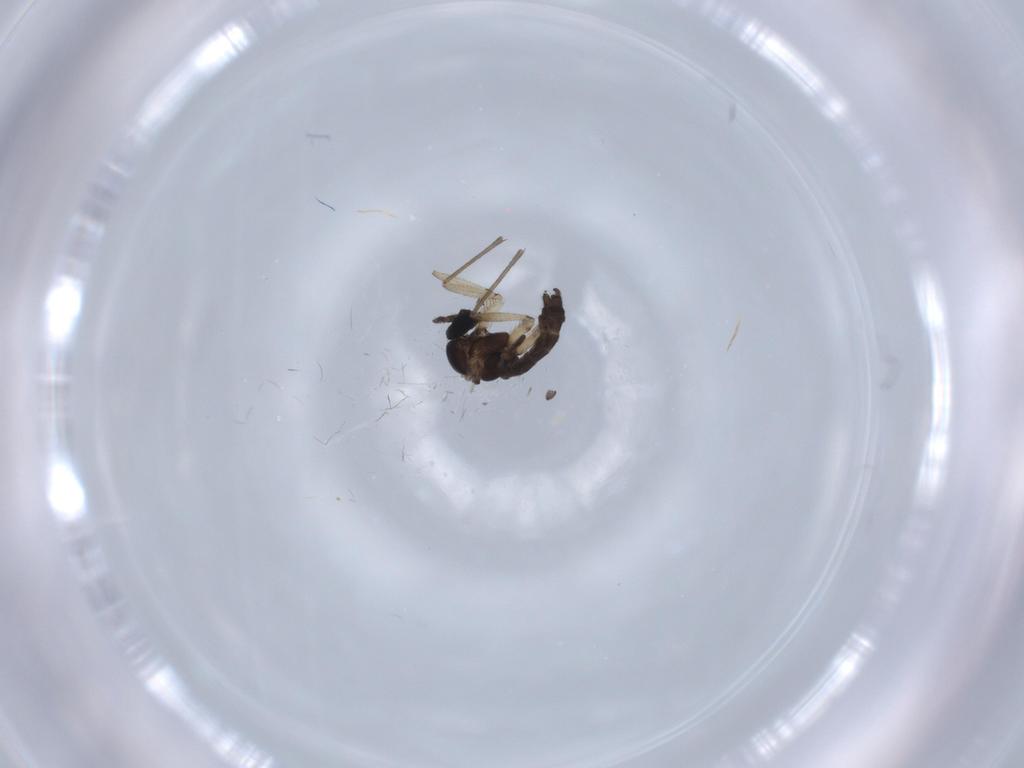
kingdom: Animalia
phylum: Arthropoda
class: Insecta
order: Diptera
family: Sciaridae
